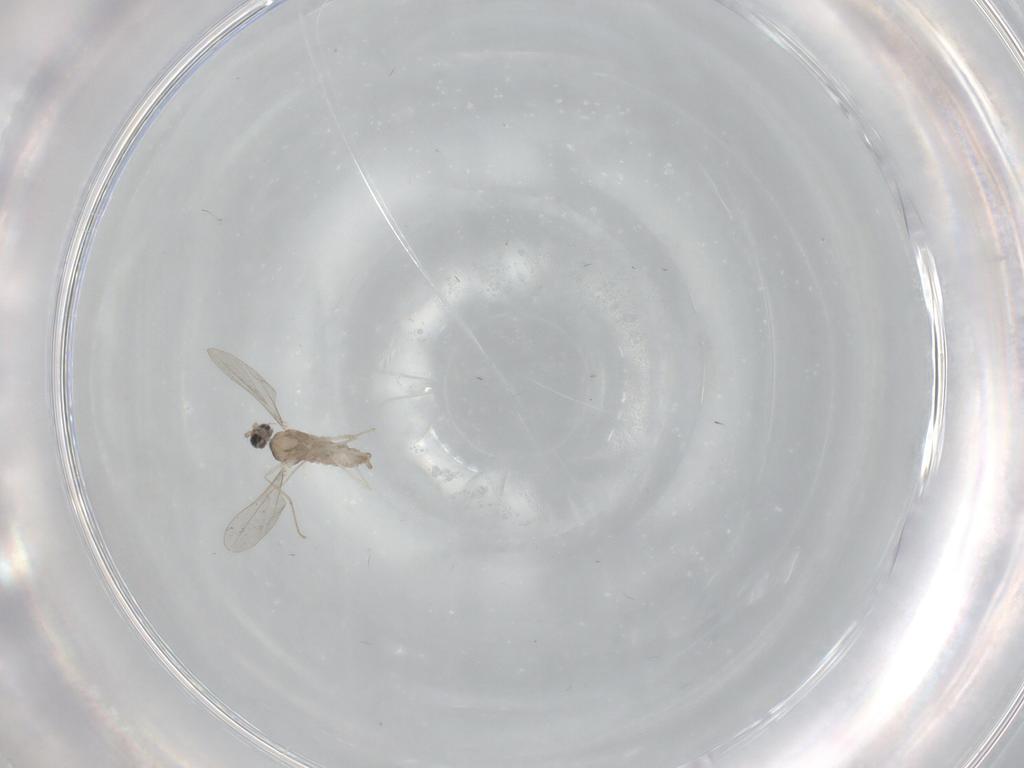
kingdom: Animalia
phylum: Arthropoda
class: Insecta
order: Diptera
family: Cecidomyiidae
